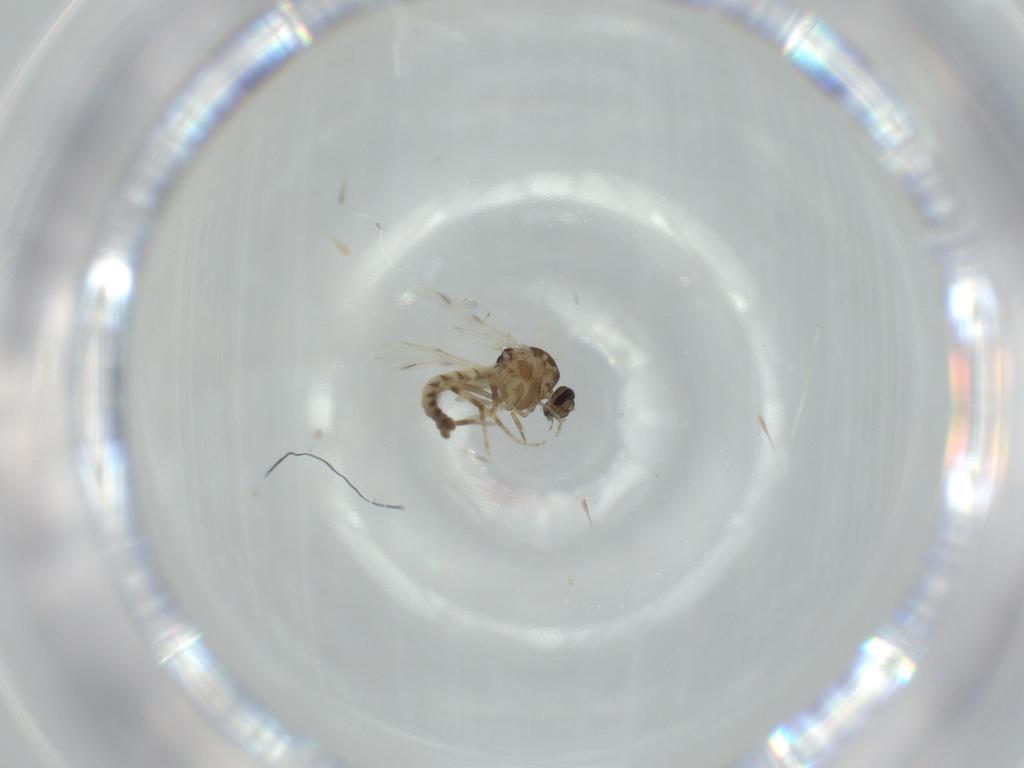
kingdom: Animalia
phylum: Arthropoda
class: Insecta
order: Diptera
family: Ceratopogonidae
